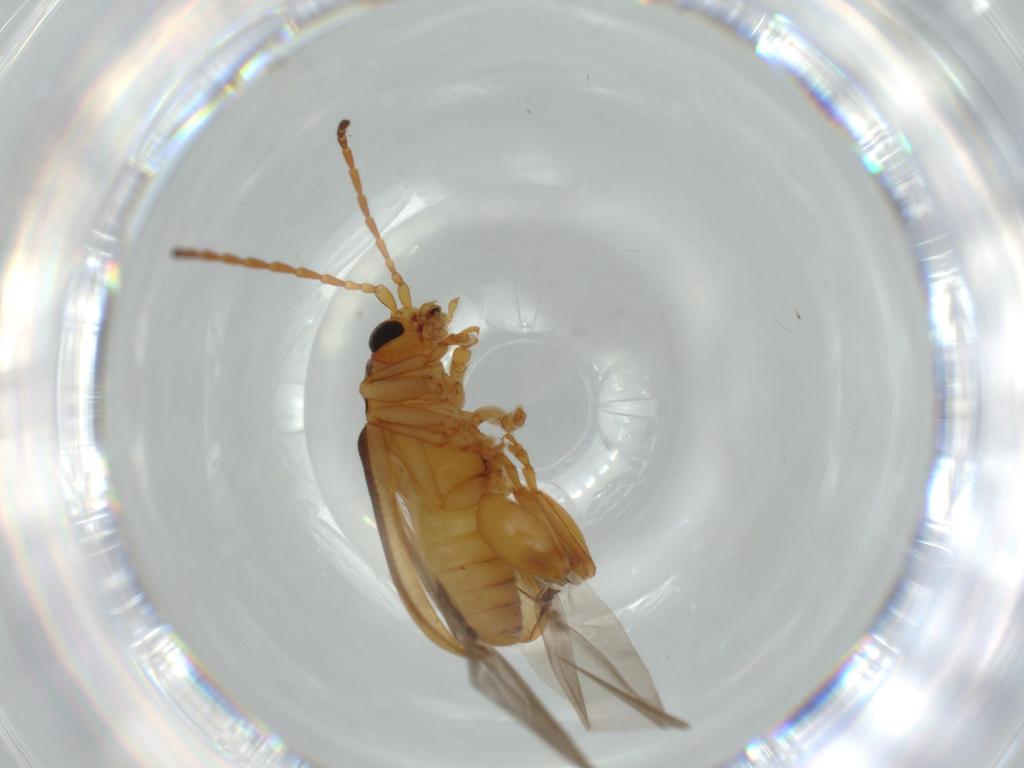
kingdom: Animalia
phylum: Arthropoda
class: Insecta
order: Coleoptera
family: Chrysomelidae
